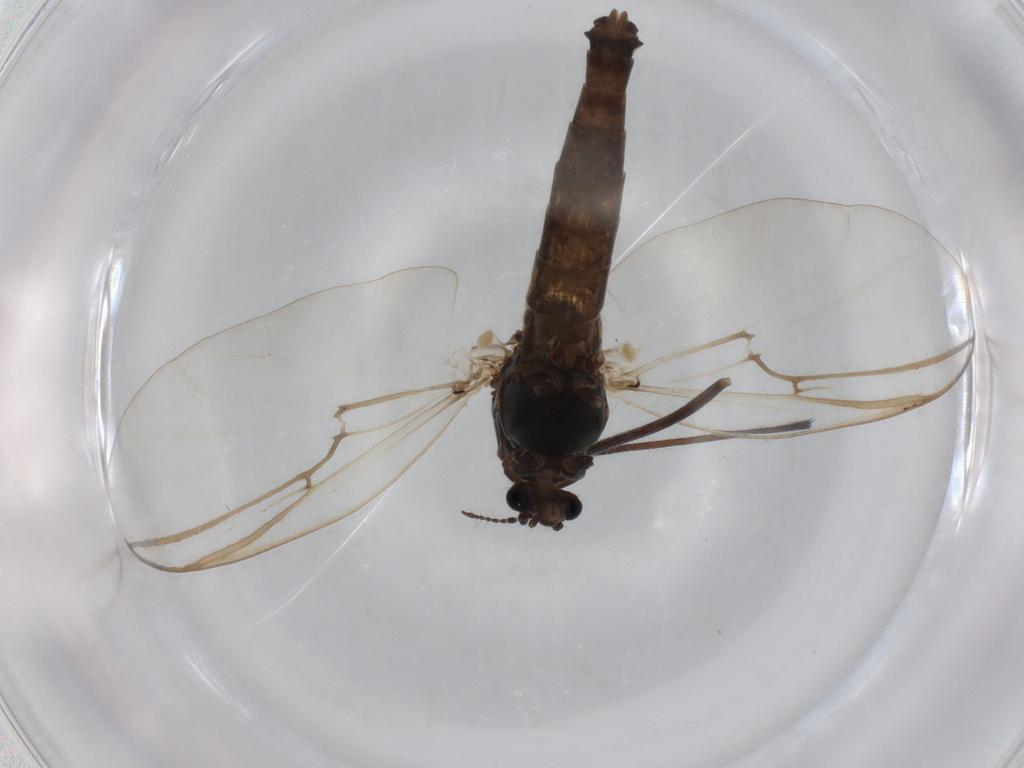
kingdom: Animalia
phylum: Arthropoda
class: Insecta
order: Diptera
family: Chironomidae
